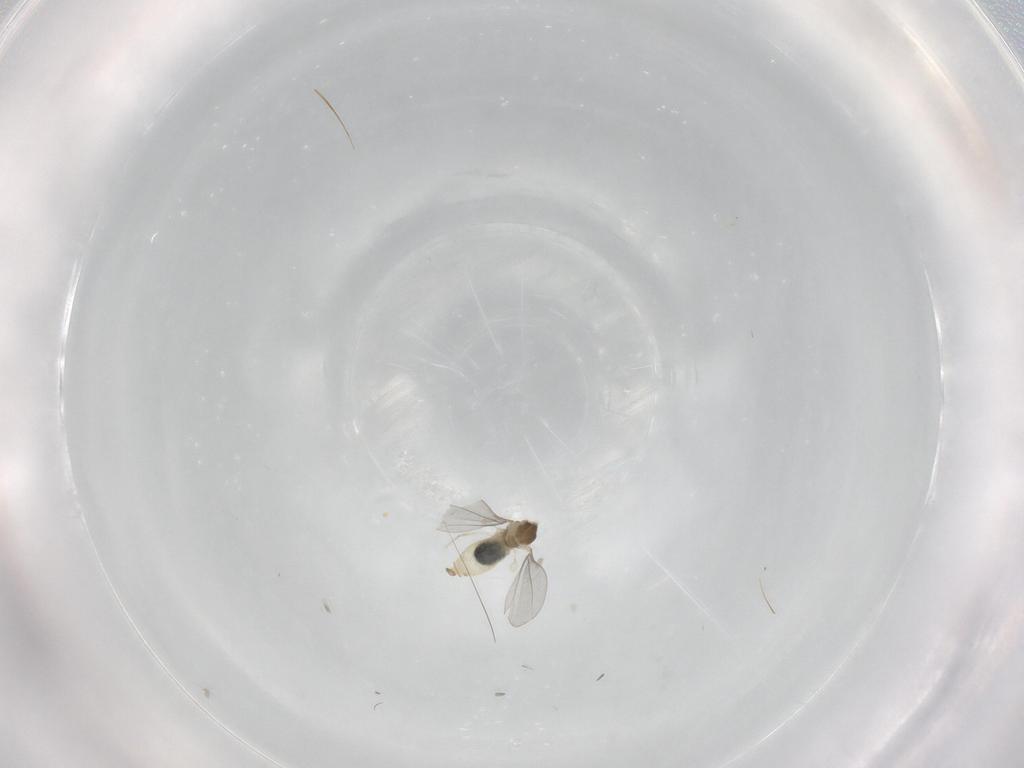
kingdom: Animalia
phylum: Arthropoda
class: Insecta
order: Diptera
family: Cecidomyiidae
